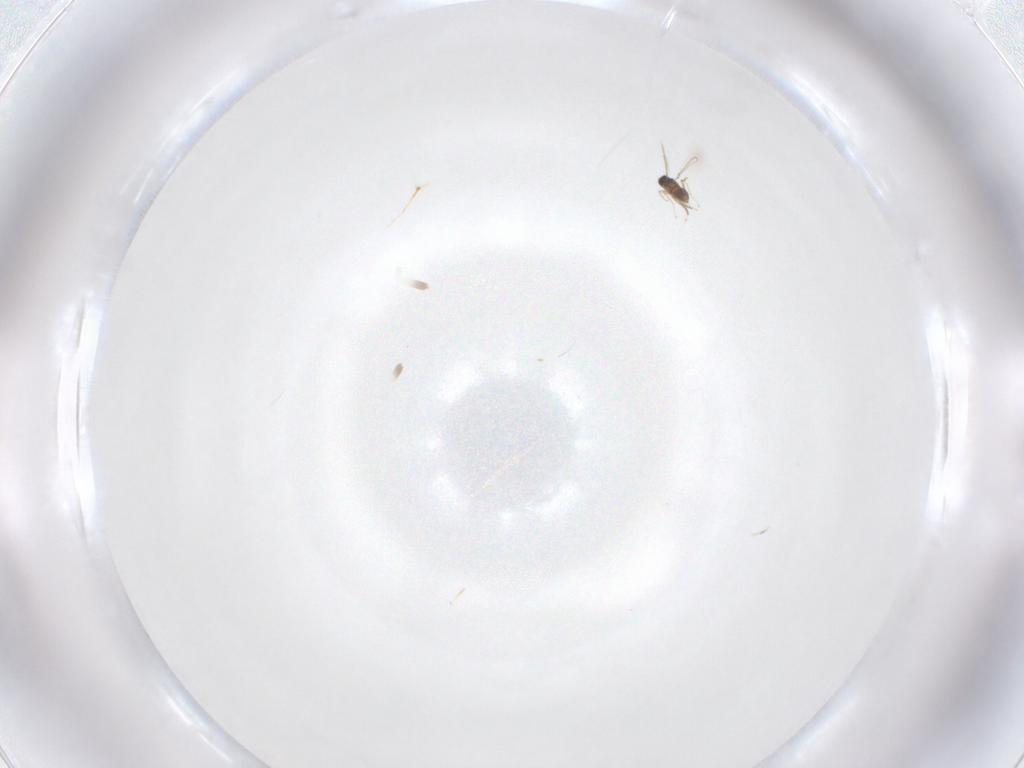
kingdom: Animalia
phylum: Arthropoda
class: Insecta
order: Hymenoptera
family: Mymaridae
